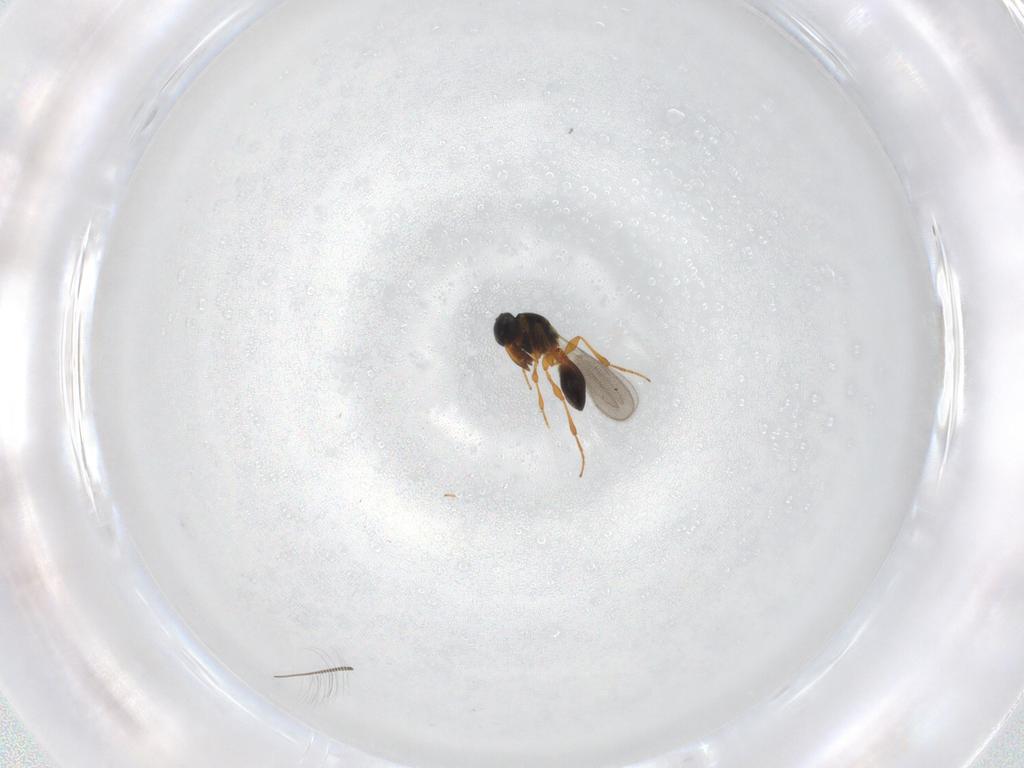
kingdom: Animalia
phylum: Arthropoda
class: Insecta
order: Hymenoptera
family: Platygastridae
